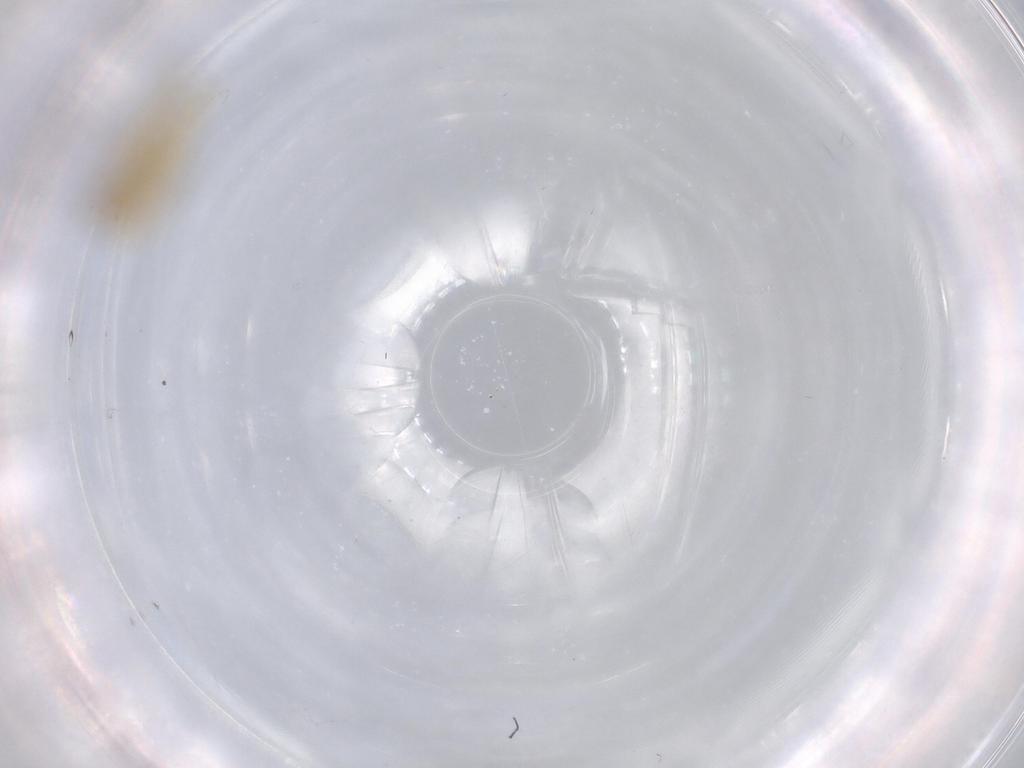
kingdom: Animalia
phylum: Arthropoda
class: Insecta
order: Diptera
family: Chironomidae
